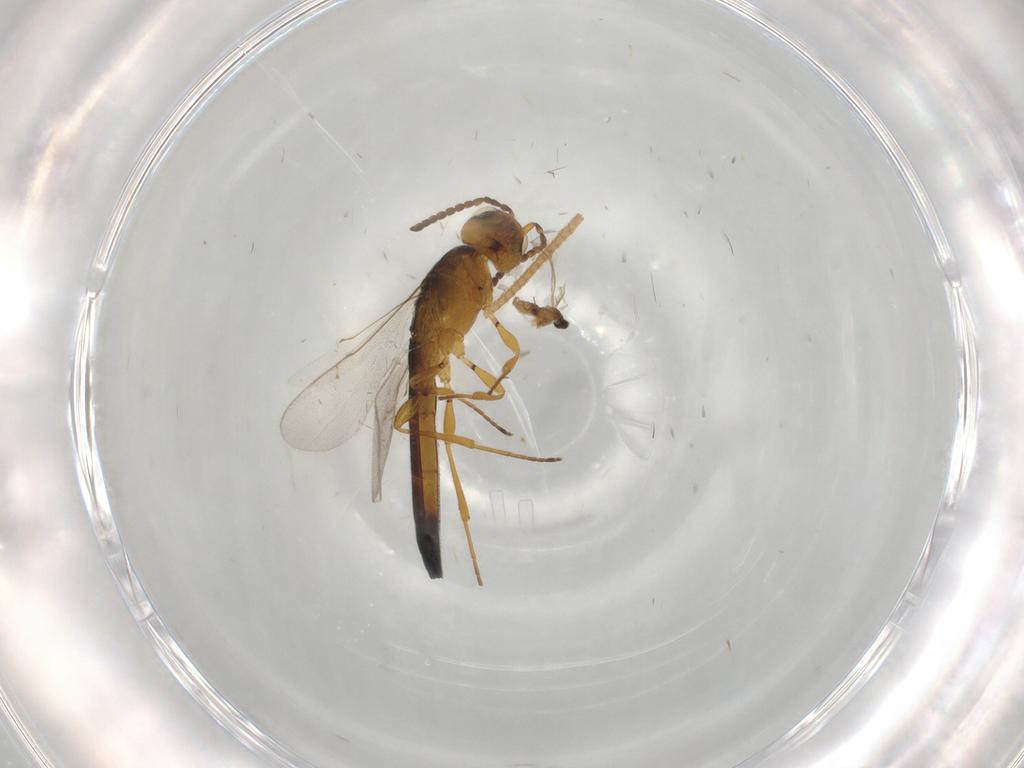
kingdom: Animalia
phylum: Arthropoda
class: Insecta
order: Hymenoptera
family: Scelionidae
